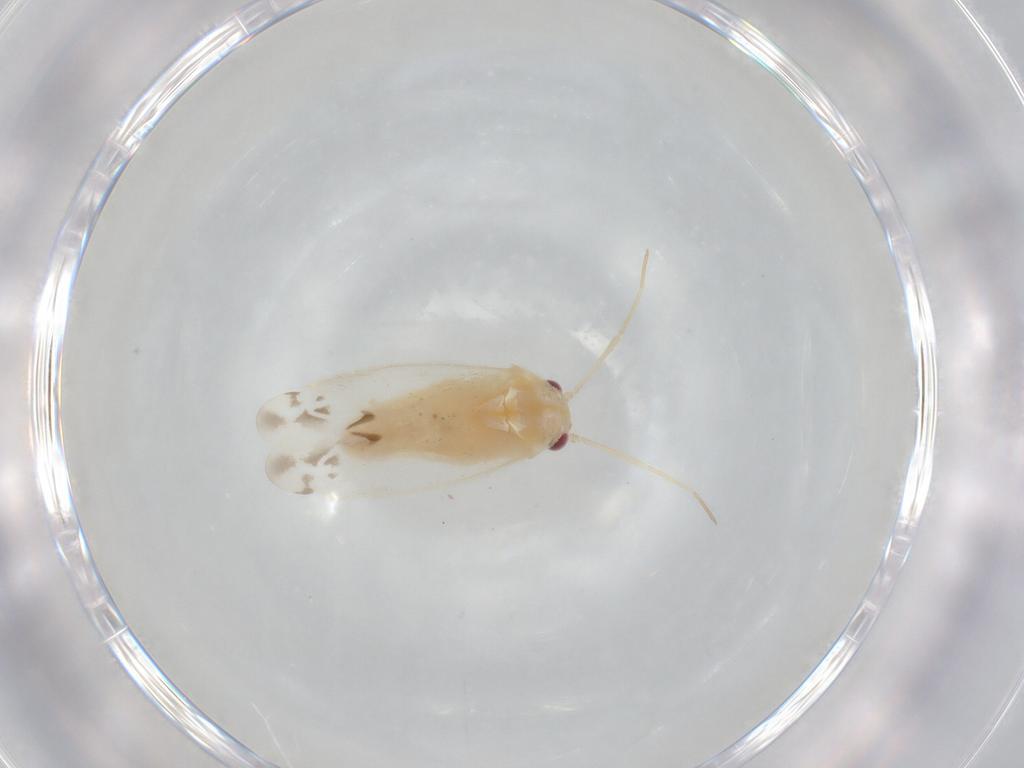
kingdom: Animalia
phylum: Arthropoda
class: Insecta
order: Hemiptera
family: Miridae
